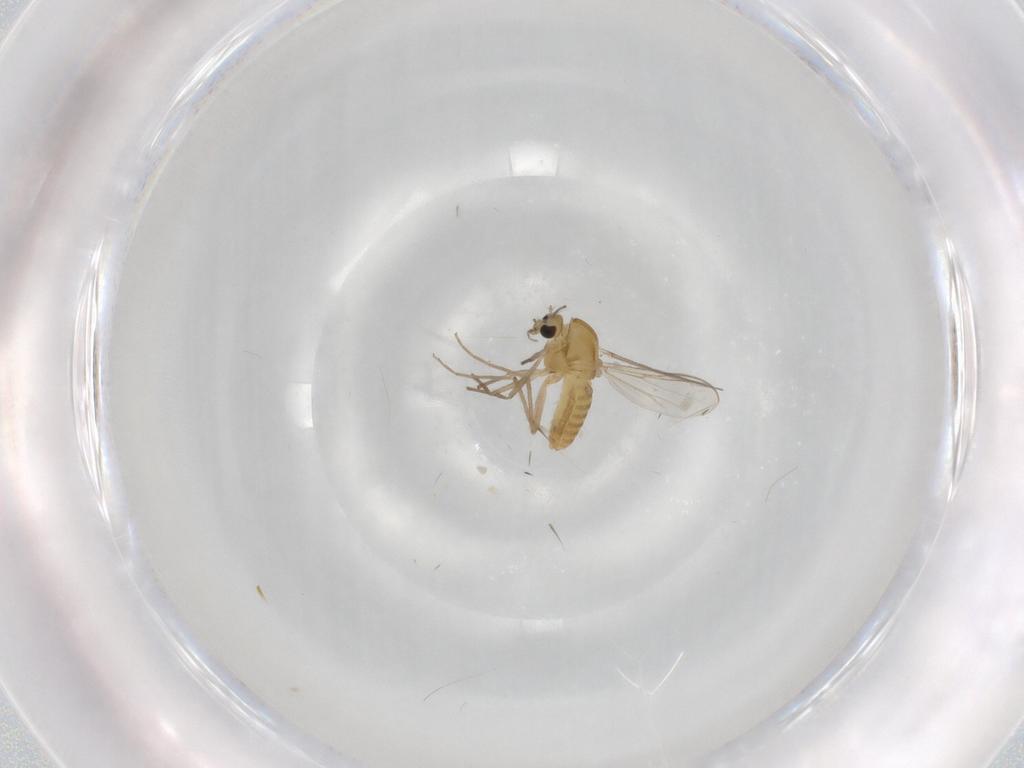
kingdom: Animalia
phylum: Arthropoda
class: Insecta
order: Diptera
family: Chironomidae
